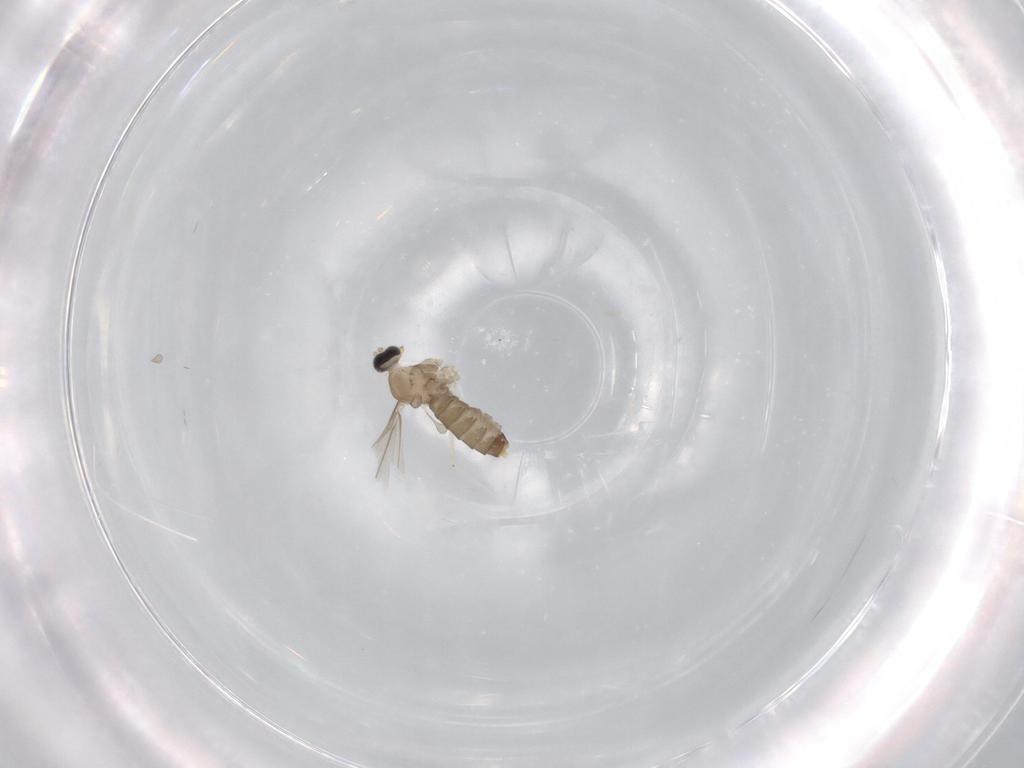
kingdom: Animalia
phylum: Arthropoda
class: Insecta
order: Diptera
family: Cecidomyiidae
